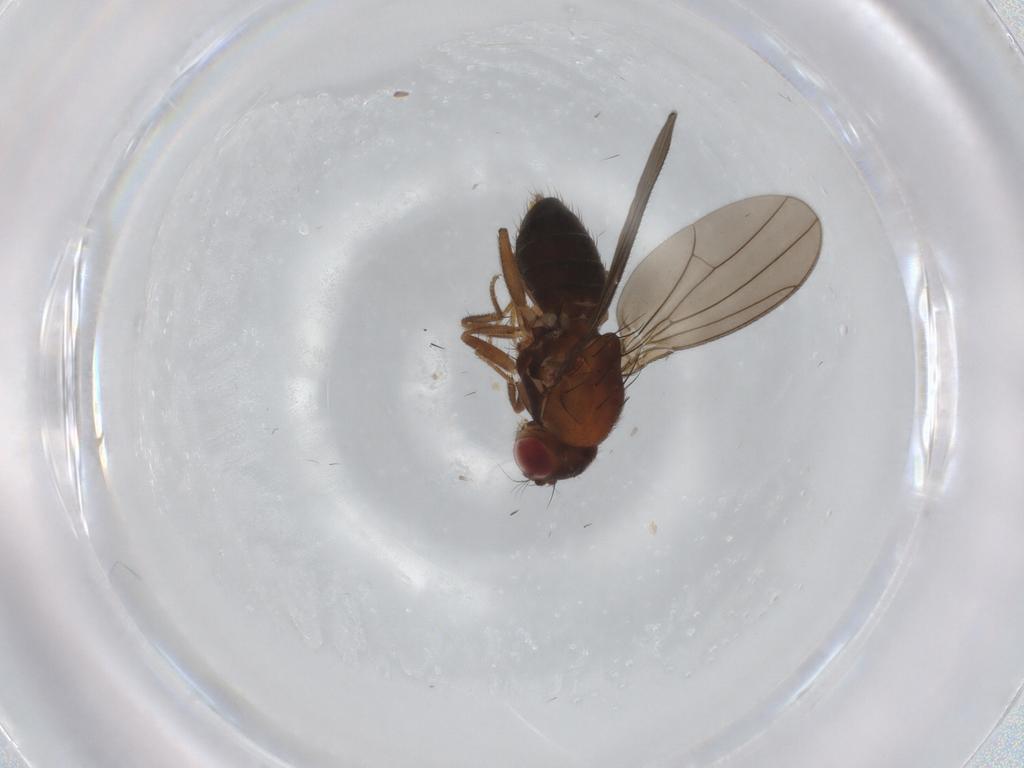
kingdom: Animalia
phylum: Arthropoda
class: Insecta
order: Diptera
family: Drosophilidae
